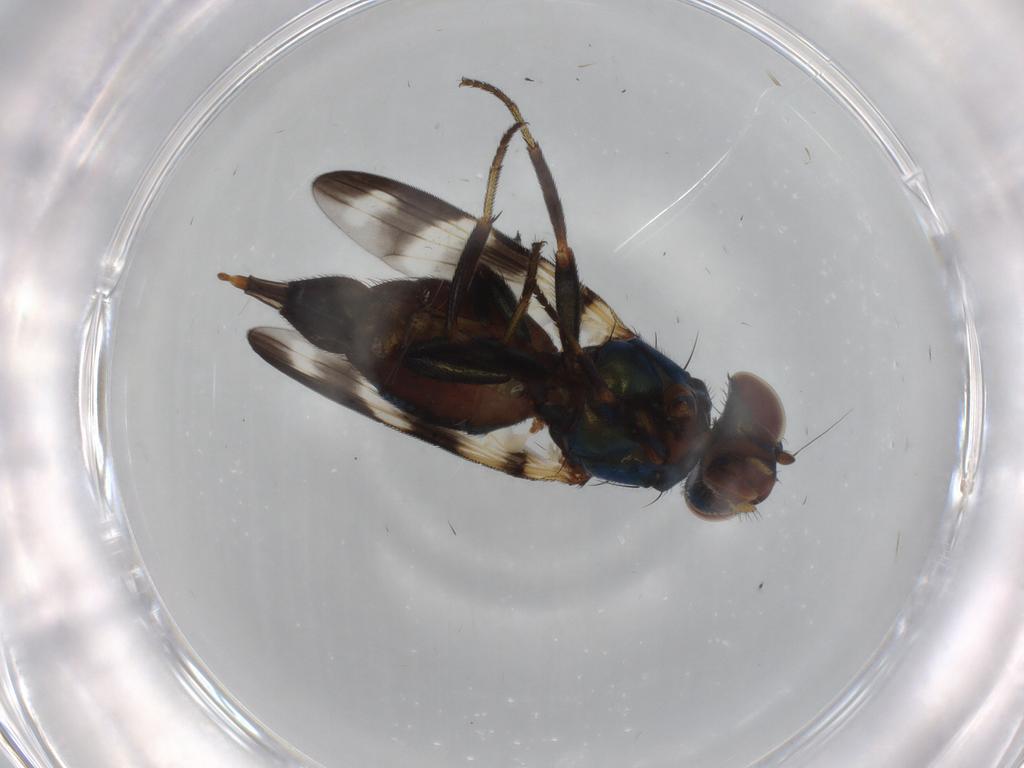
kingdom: Animalia
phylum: Arthropoda
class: Insecta
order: Diptera
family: Ulidiidae
